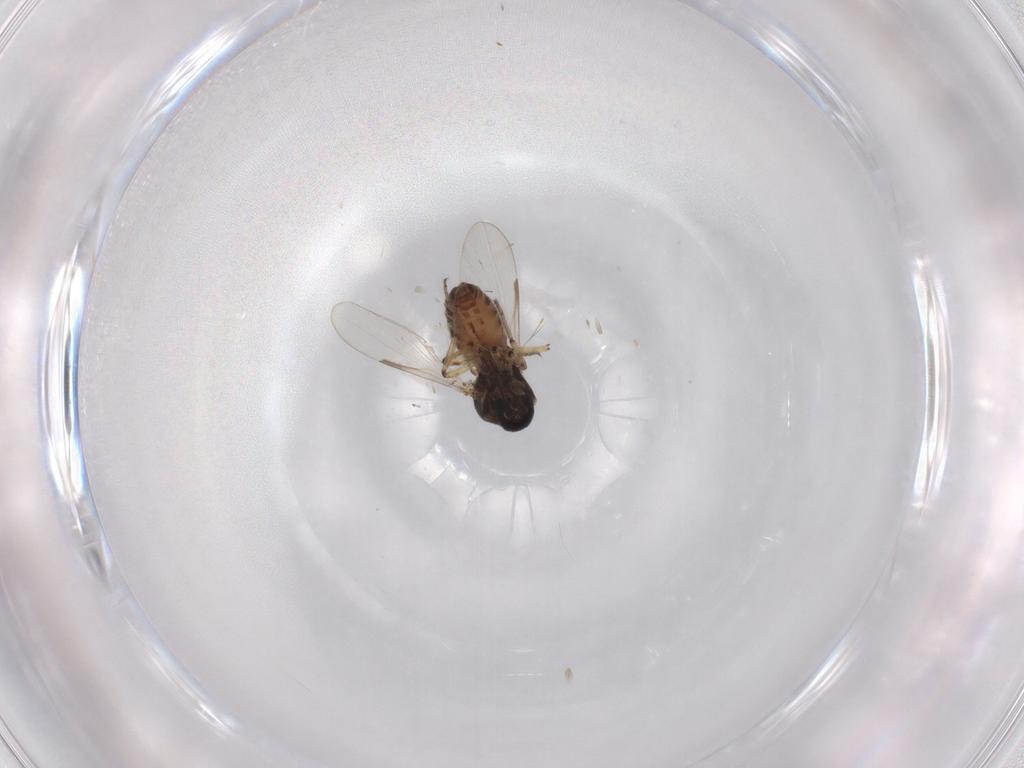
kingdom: Animalia
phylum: Arthropoda
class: Insecta
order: Diptera
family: Ceratopogonidae
